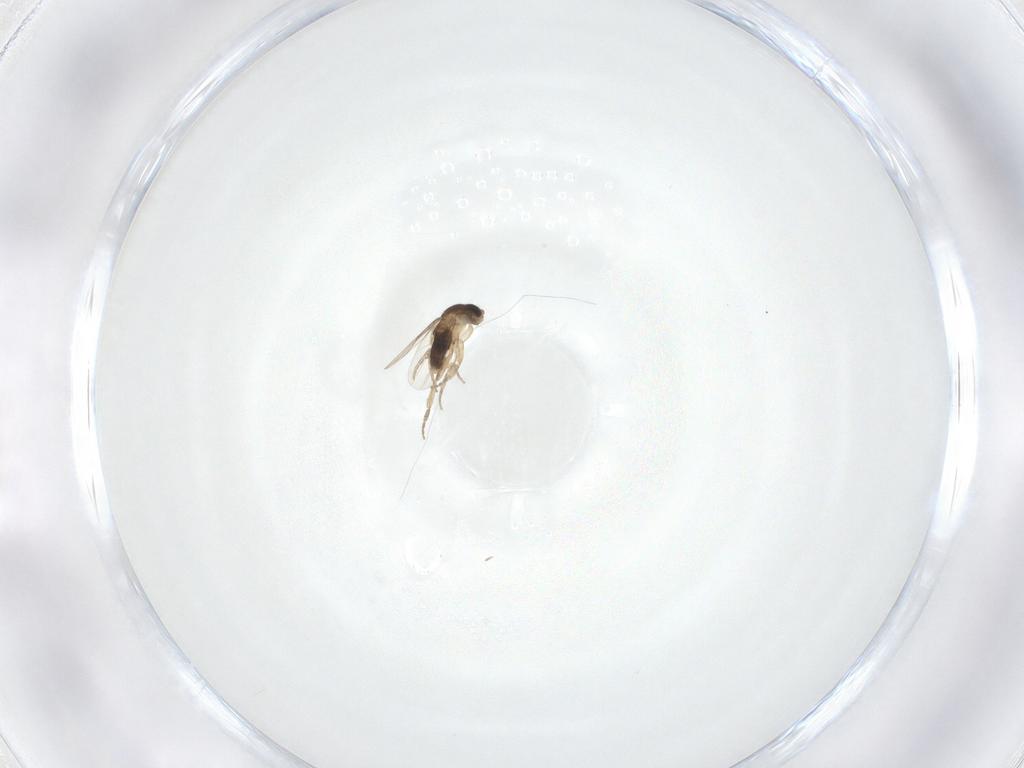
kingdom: Animalia
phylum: Arthropoda
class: Insecta
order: Diptera
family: Phoridae
